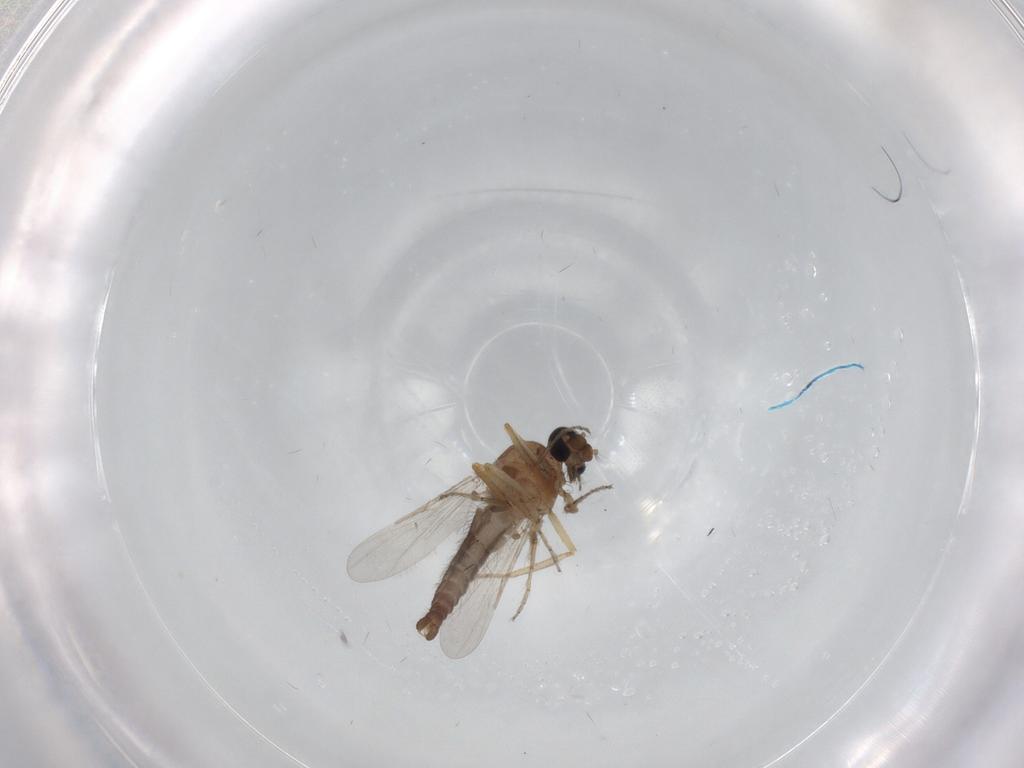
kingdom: Animalia
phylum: Arthropoda
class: Insecta
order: Diptera
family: Ceratopogonidae
